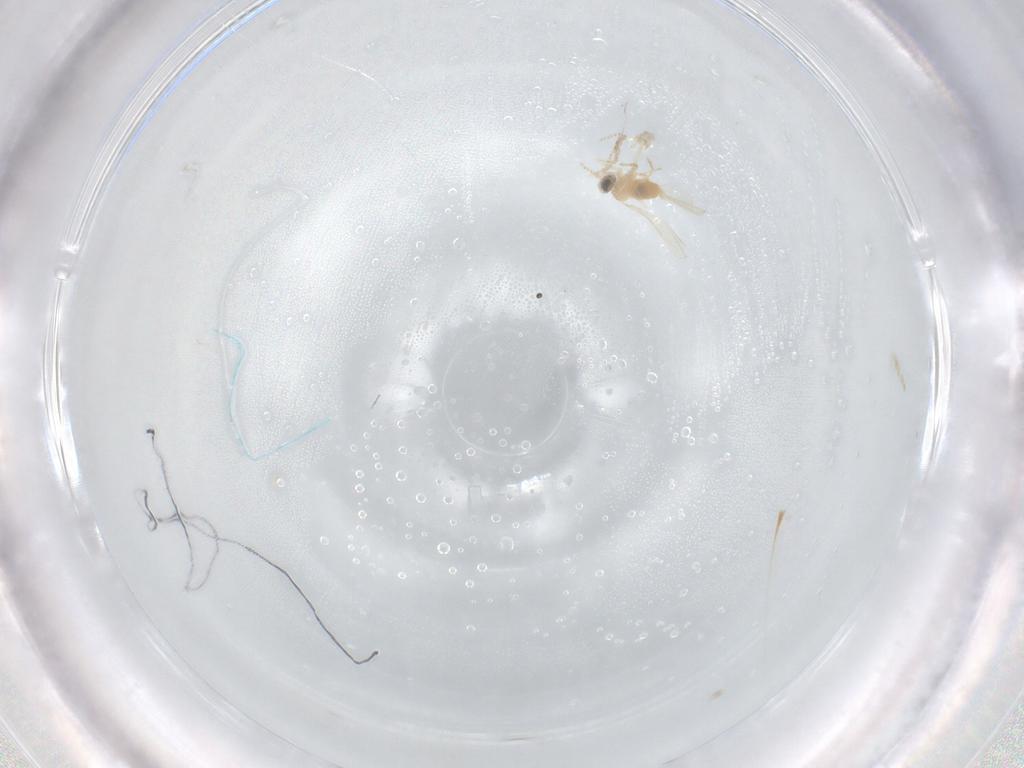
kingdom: Animalia
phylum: Arthropoda
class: Insecta
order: Diptera
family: Cecidomyiidae
